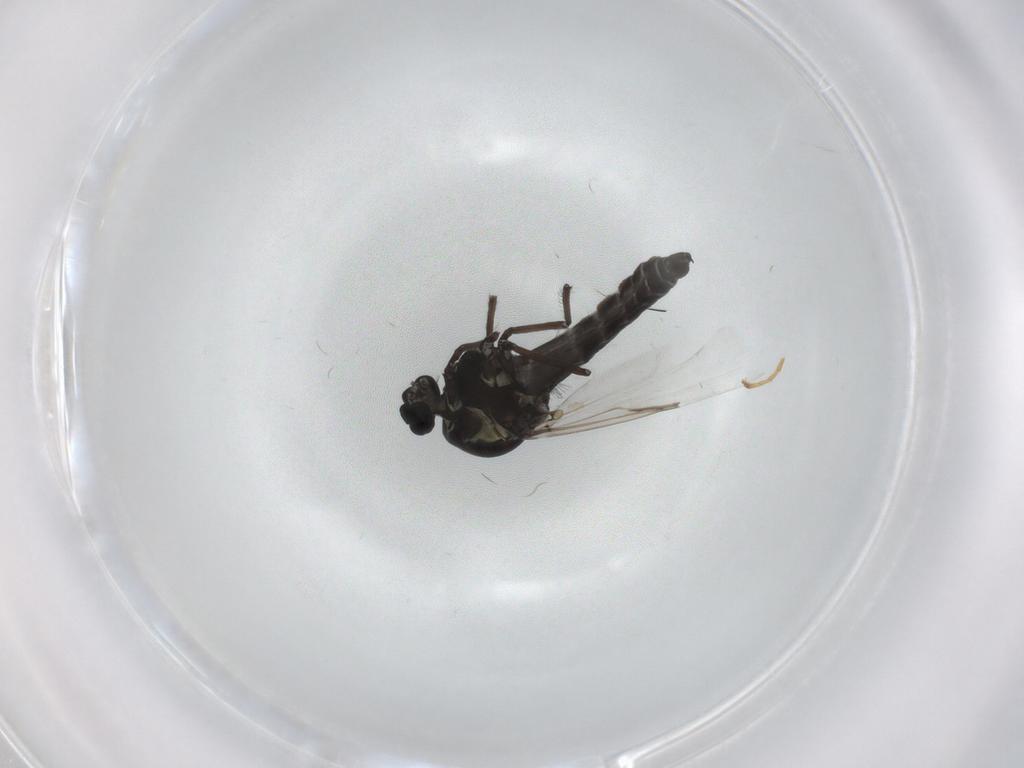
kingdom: Animalia
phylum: Arthropoda
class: Insecta
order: Diptera
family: Ceratopogonidae
